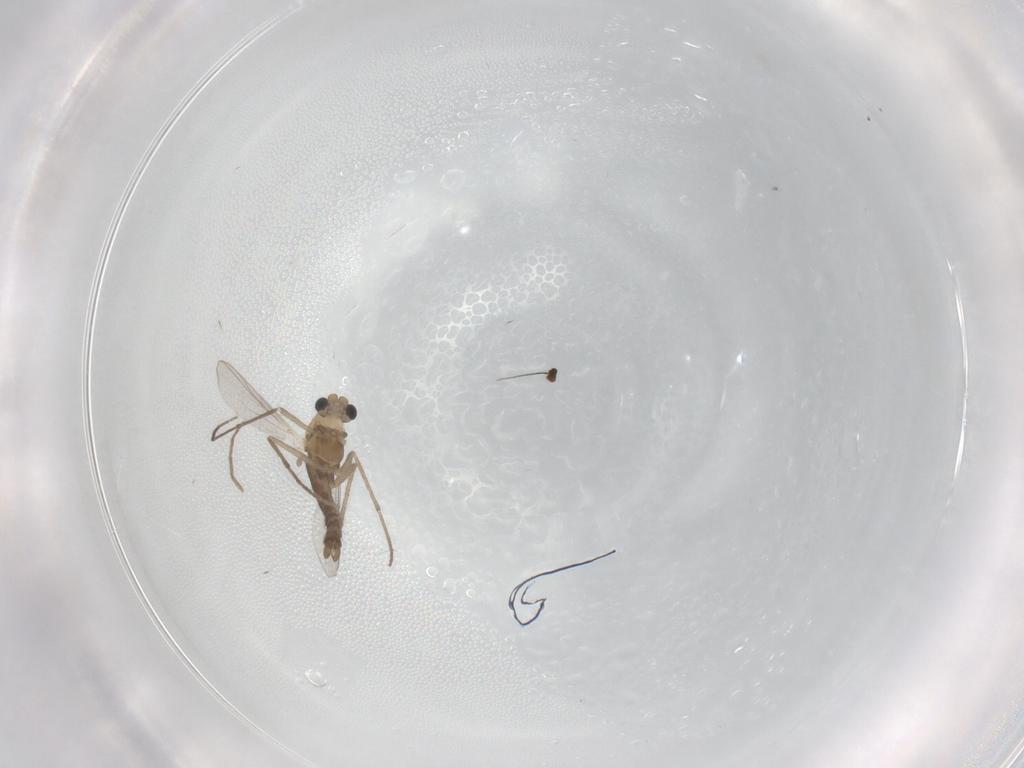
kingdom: Animalia
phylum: Arthropoda
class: Insecta
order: Diptera
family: Chironomidae
